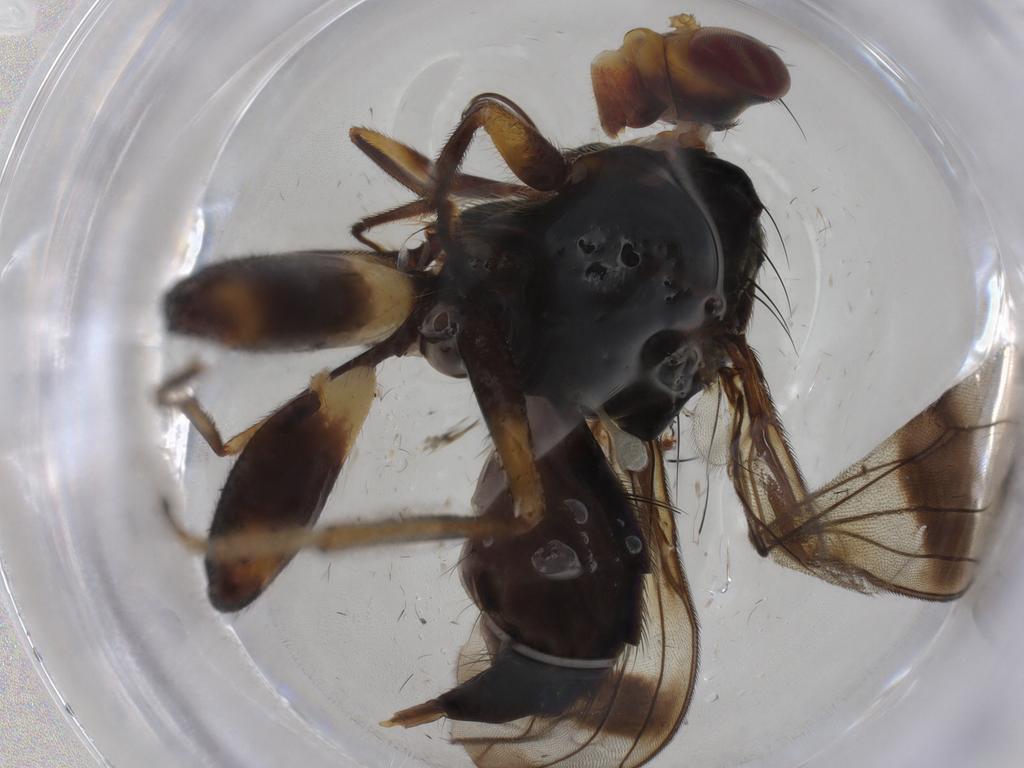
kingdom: Animalia
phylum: Arthropoda
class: Insecta
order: Diptera
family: Richardiidae
